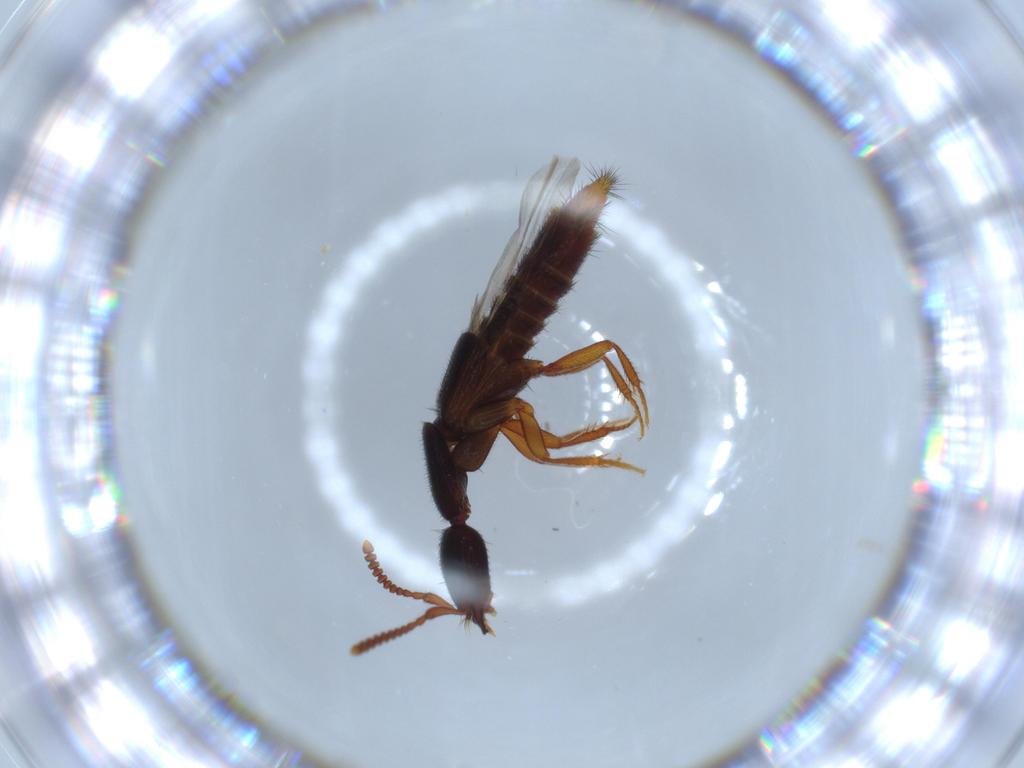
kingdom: Animalia
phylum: Arthropoda
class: Insecta
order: Coleoptera
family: Staphylinidae
